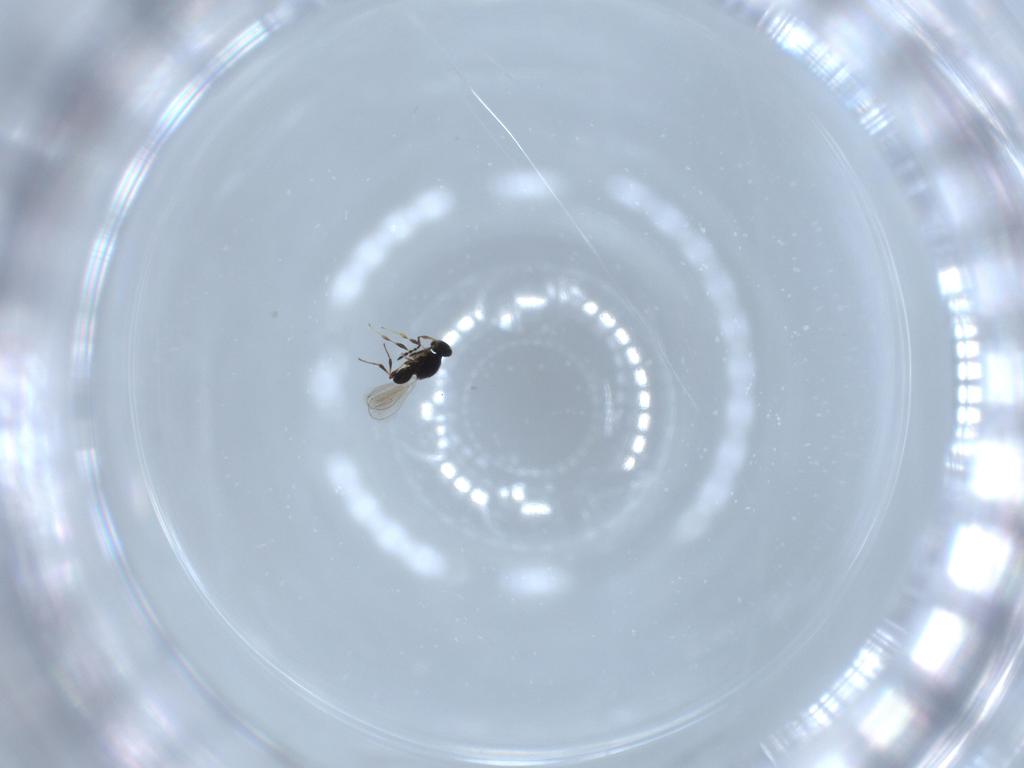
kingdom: Animalia
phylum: Arthropoda
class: Insecta
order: Hymenoptera
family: Platygastridae
